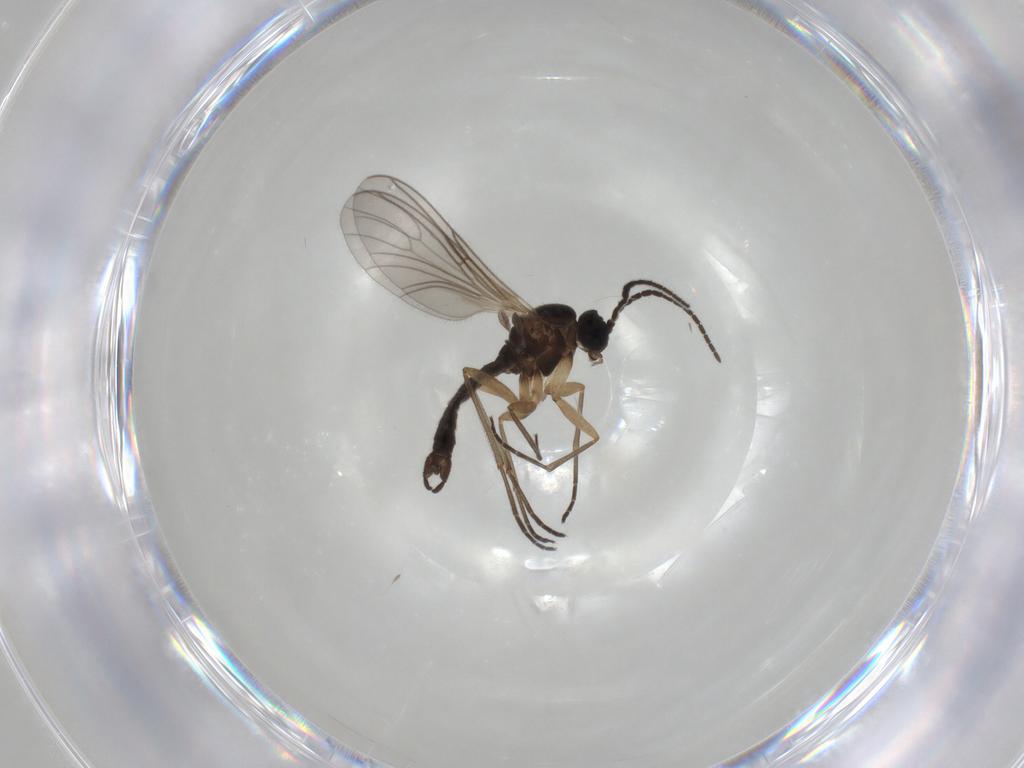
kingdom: Animalia
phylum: Arthropoda
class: Insecta
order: Diptera
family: Sciaridae
